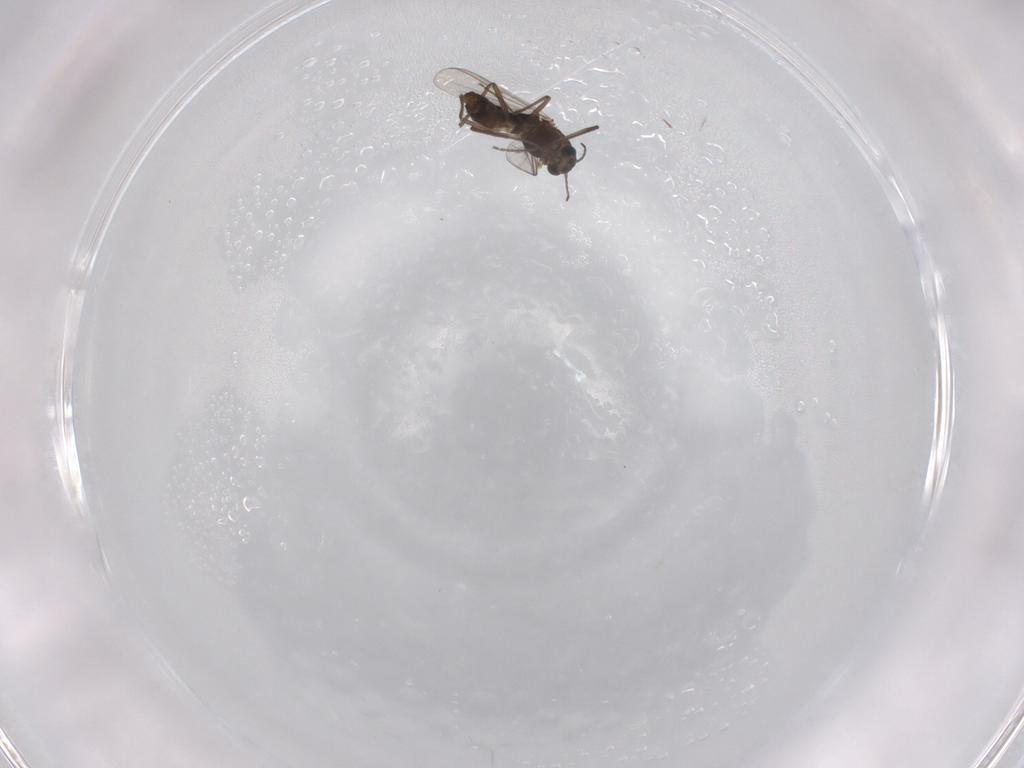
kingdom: Animalia
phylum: Arthropoda
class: Insecta
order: Diptera
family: Chironomidae
